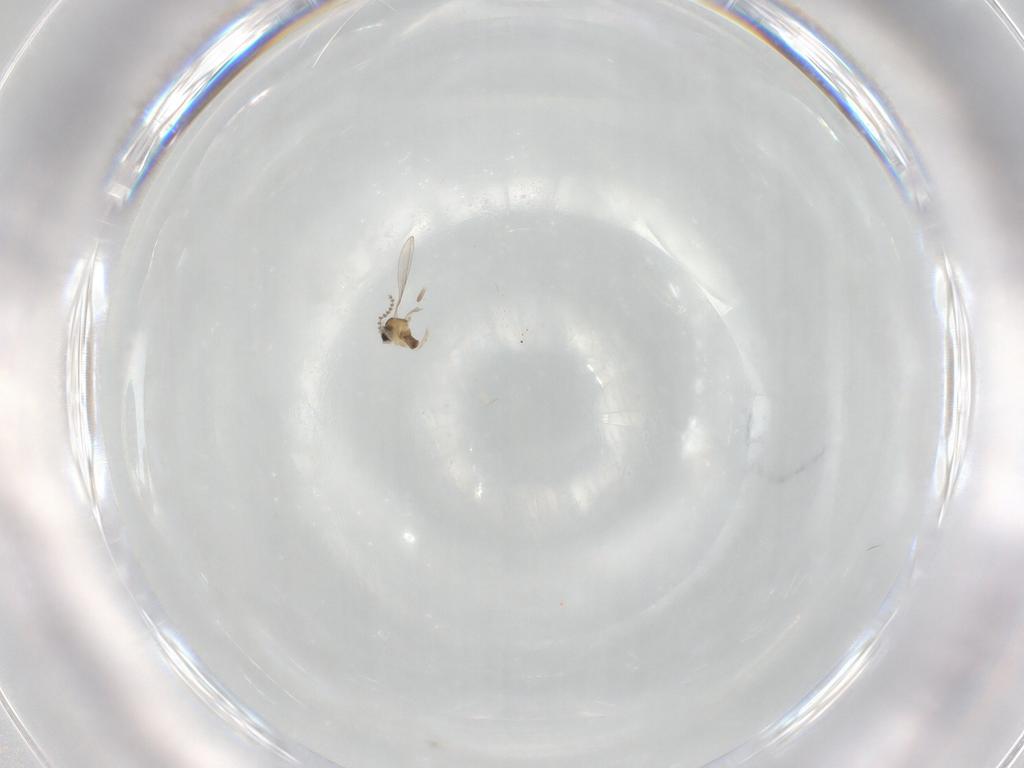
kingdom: Animalia
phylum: Arthropoda
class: Insecta
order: Diptera
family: Cecidomyiidae
